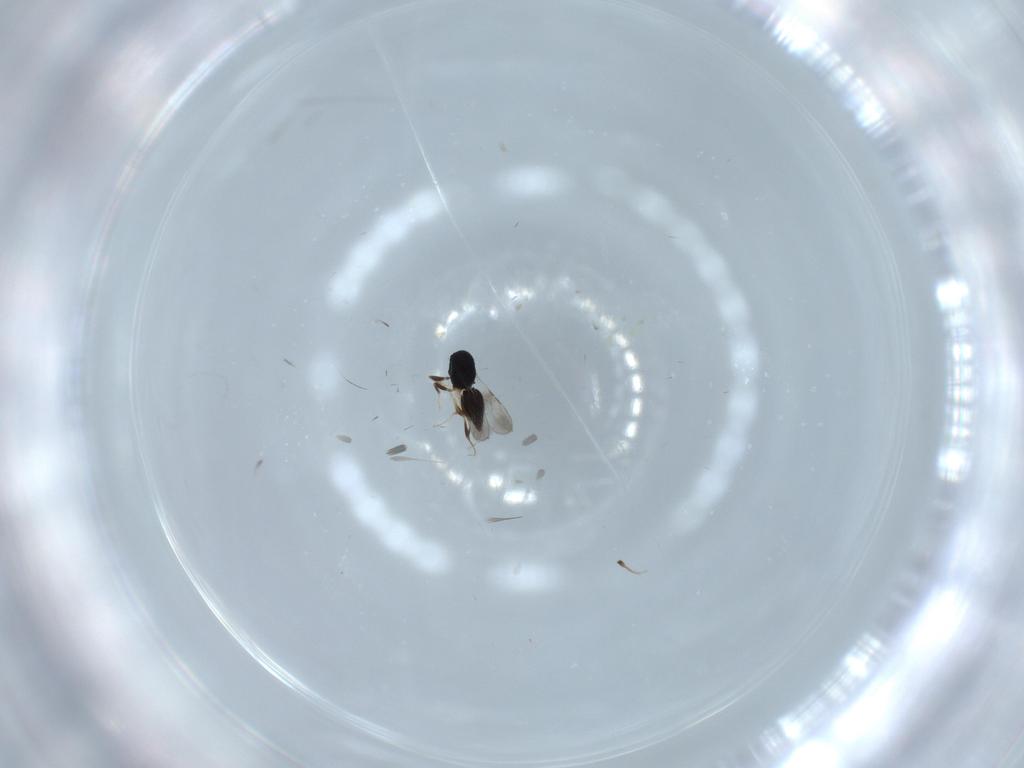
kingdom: Animalia
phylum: Arthropoda
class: Insecta
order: Hymenoptera
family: Ceraphronidae
